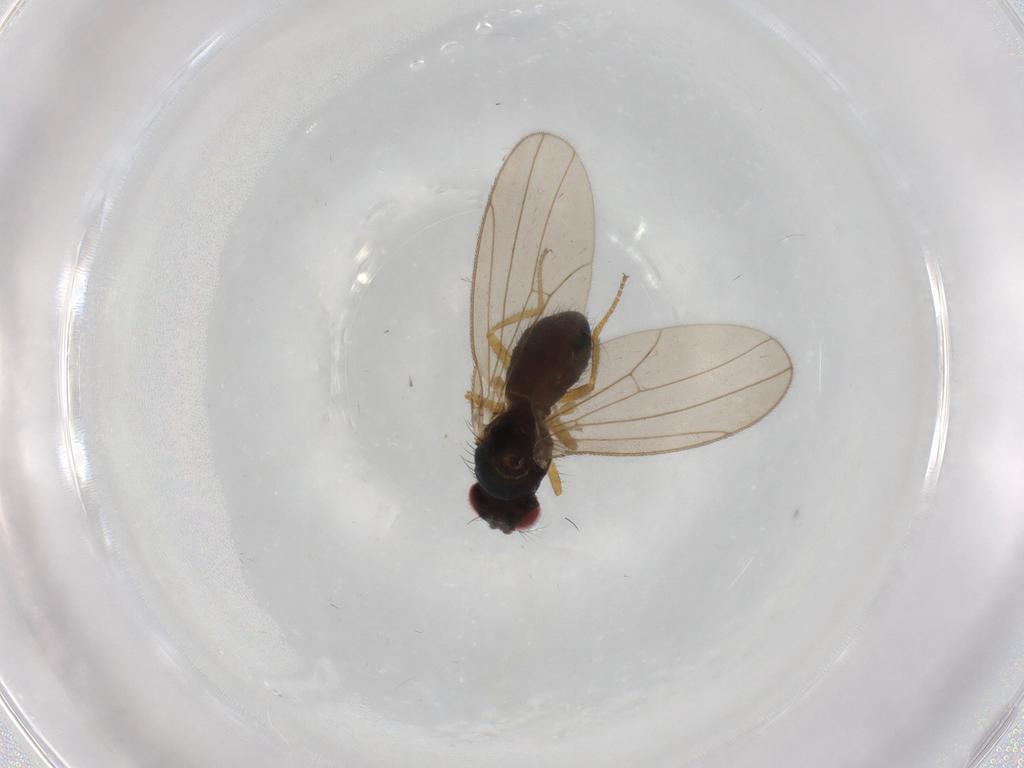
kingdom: Animalia
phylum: Arthropoda
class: Insecta
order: Diptera
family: Drosophilidae
